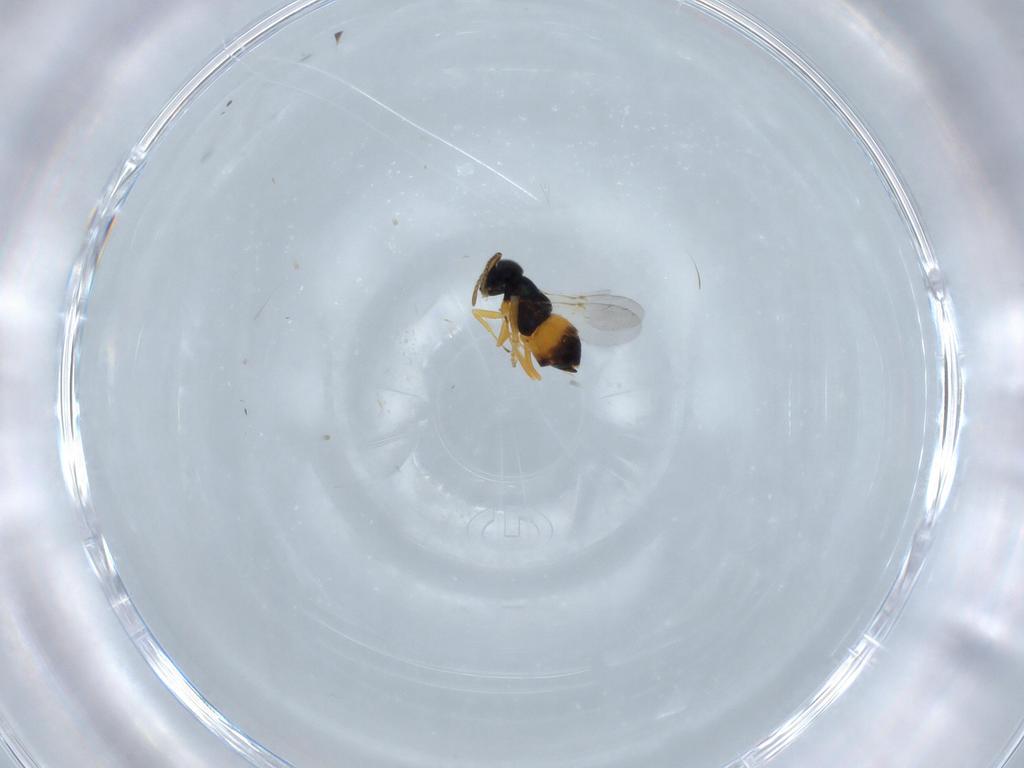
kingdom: Animalia
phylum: Arthropoda
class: Insecta
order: Hymenoptera
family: Encyrtidae
